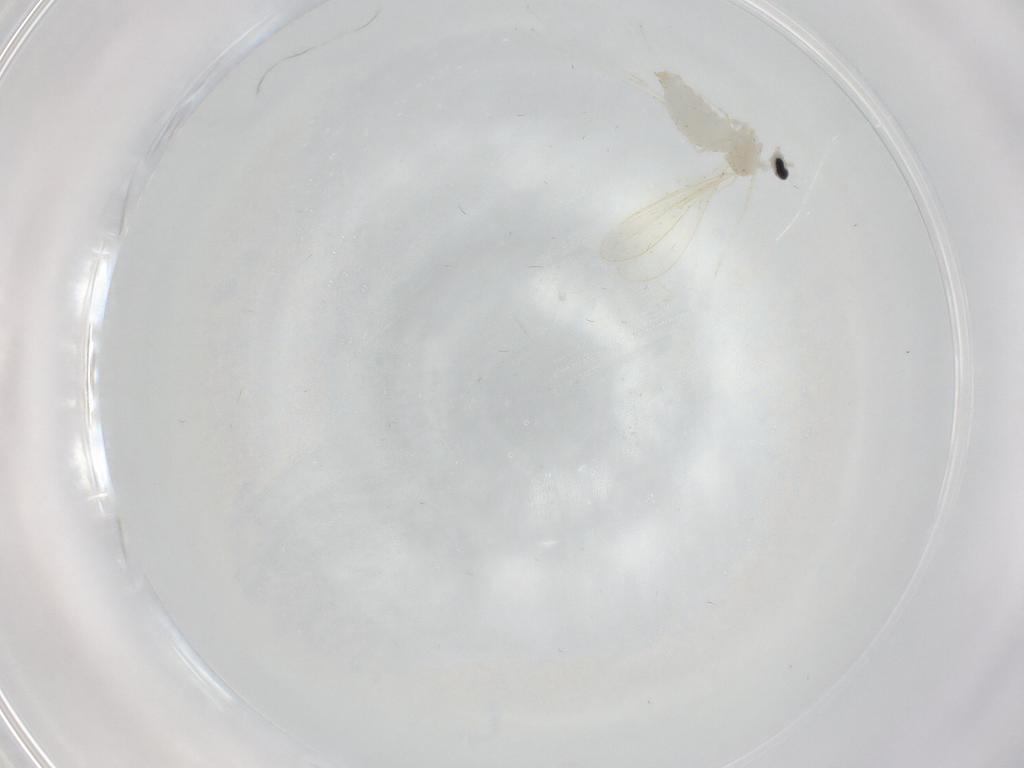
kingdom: Animalia
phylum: Arthropoda
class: Insecta
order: Diptera
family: Cecidomyiidae
